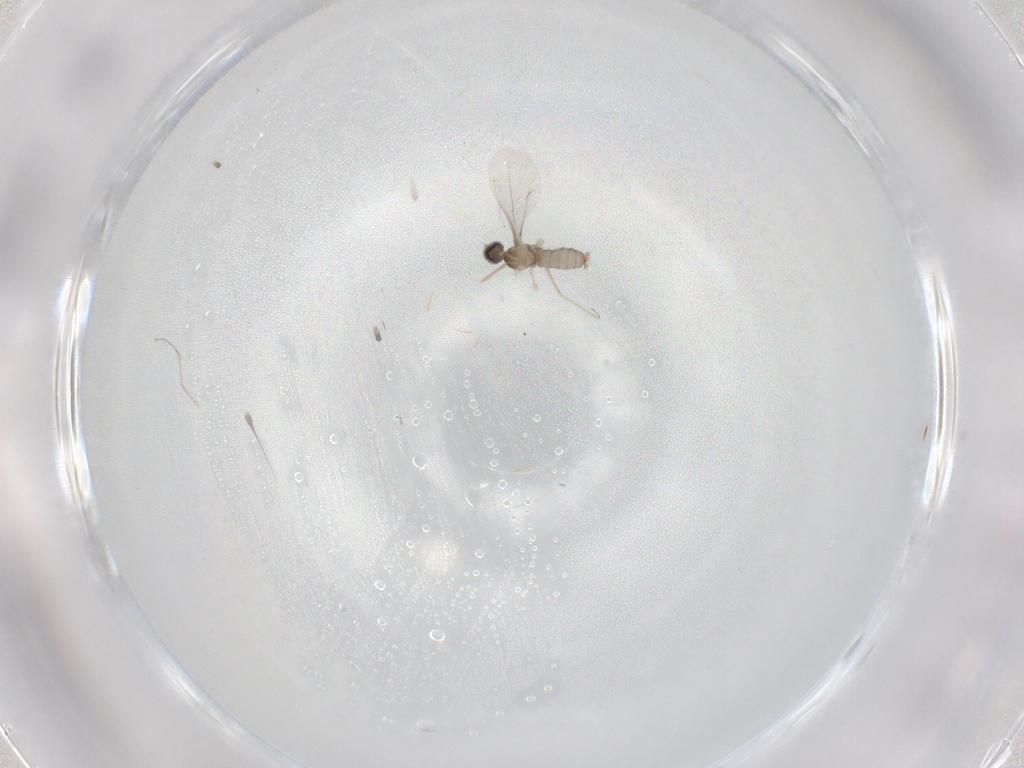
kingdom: Animalia
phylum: Arthropoda
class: Insecta
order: Diptera
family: Cecidomyiidae
